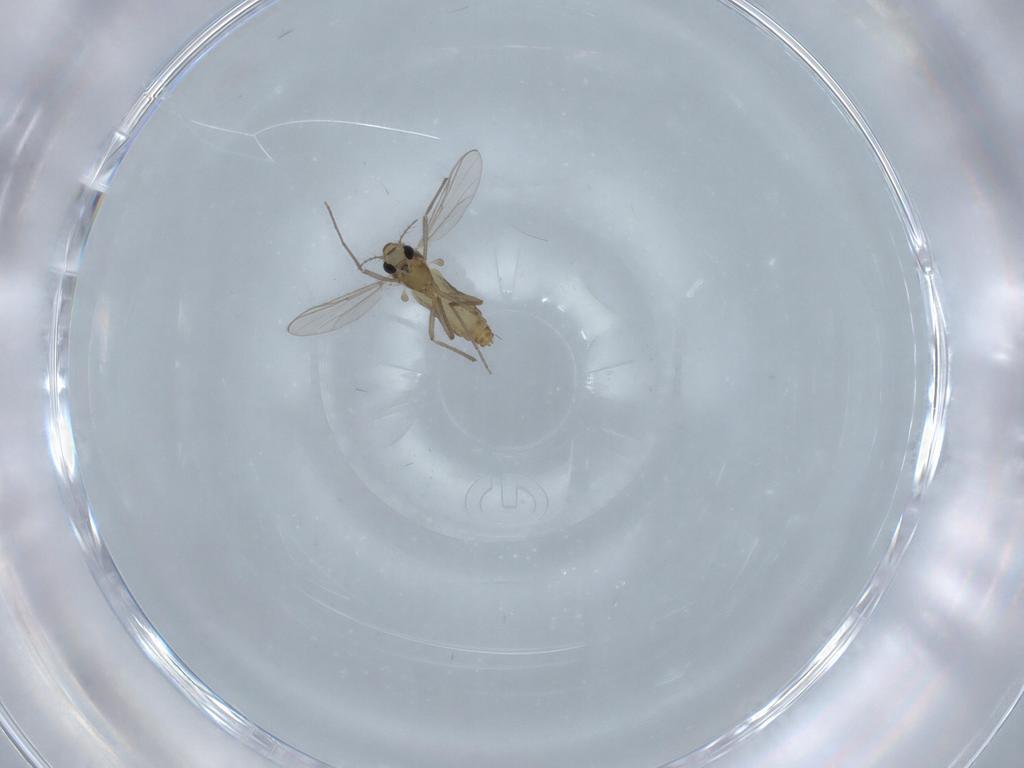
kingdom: Animalia
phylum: Arthropoda
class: Insecta
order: Diptera
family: Chironomidae
